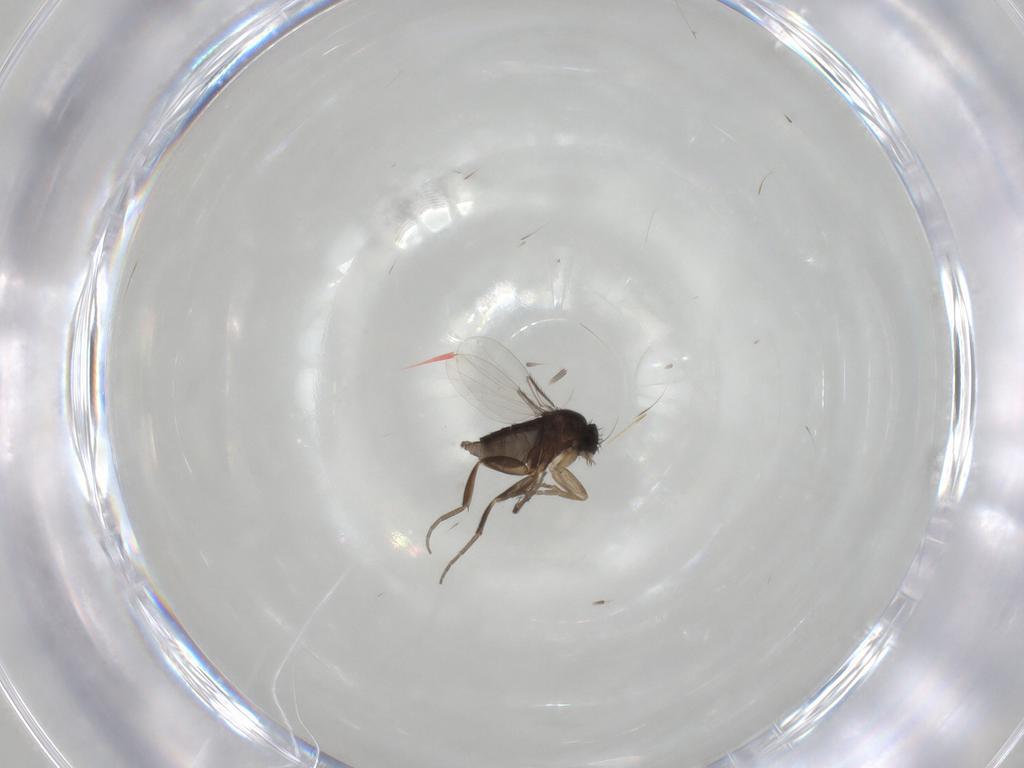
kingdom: Animalia
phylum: Arthropoda
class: Insecta
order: Diptera
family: Phoridae
